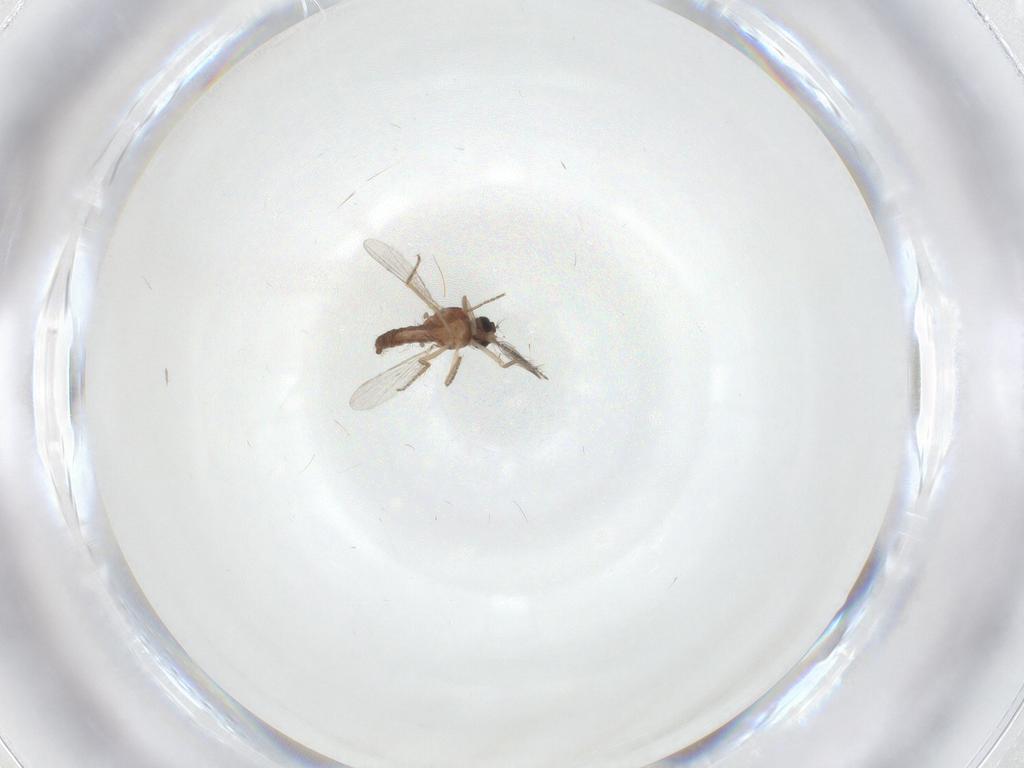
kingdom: Animalia
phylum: Arthropoda
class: Insecta
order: Diptera
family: Ceratopogonidae
